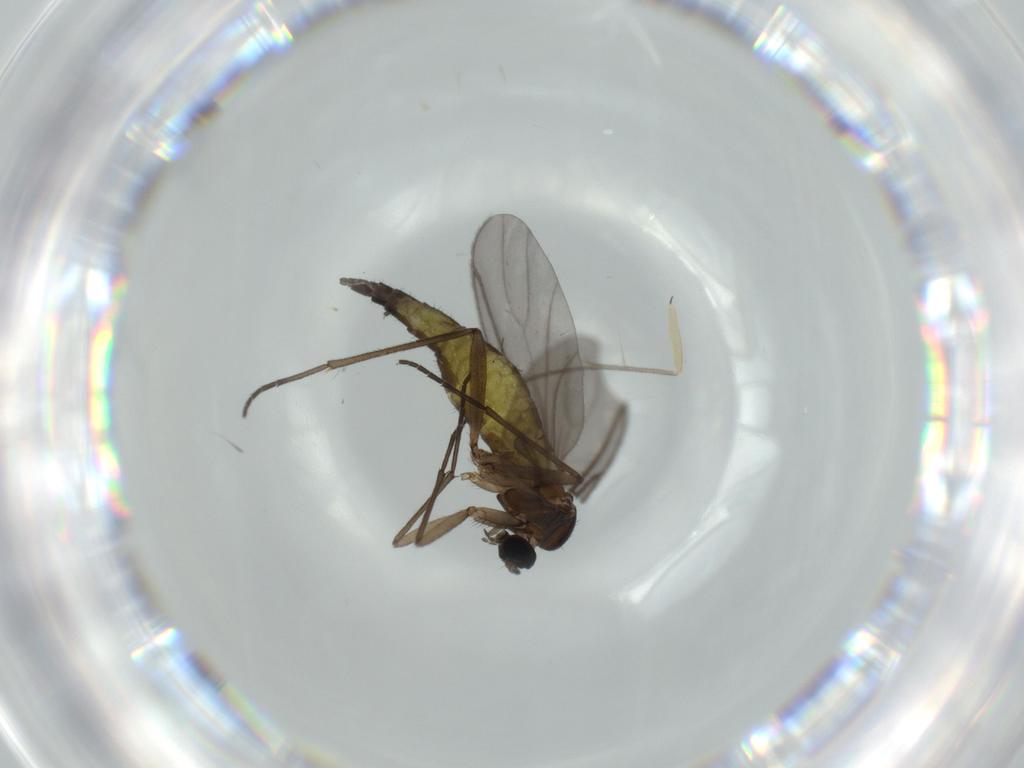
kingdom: Animalia
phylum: Arthropoda
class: Insecta
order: Diptera
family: Sciaridae
